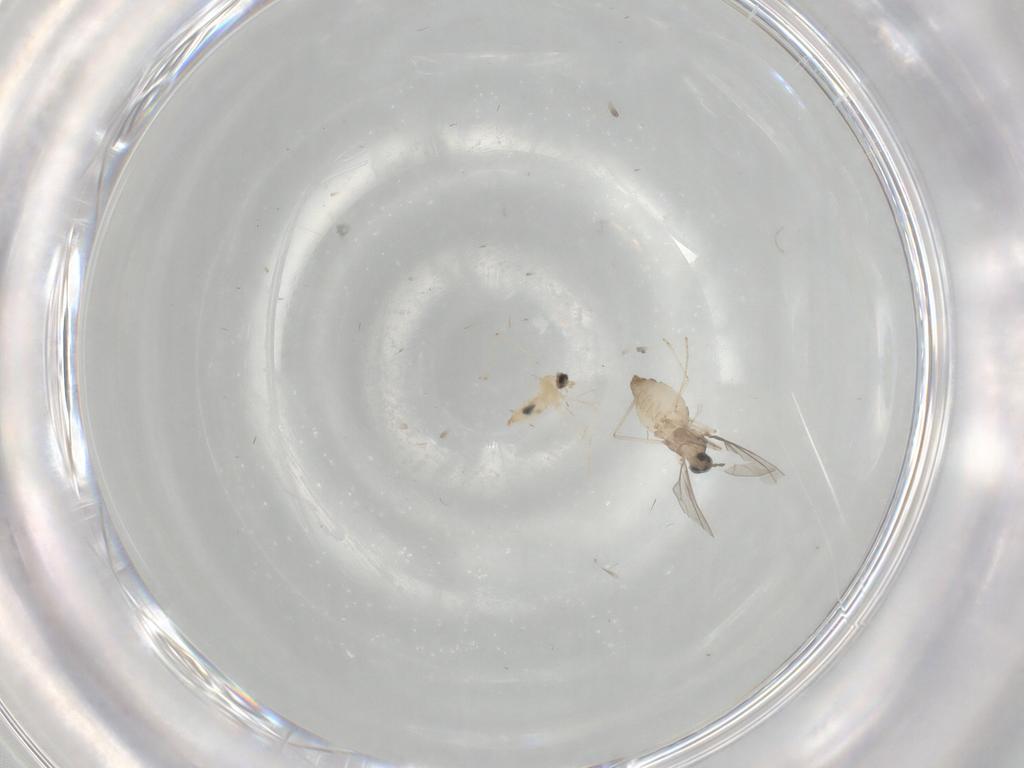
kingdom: Animalia
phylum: Arthropoda
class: Insecta
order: Diptera
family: Cecidomyiidae
